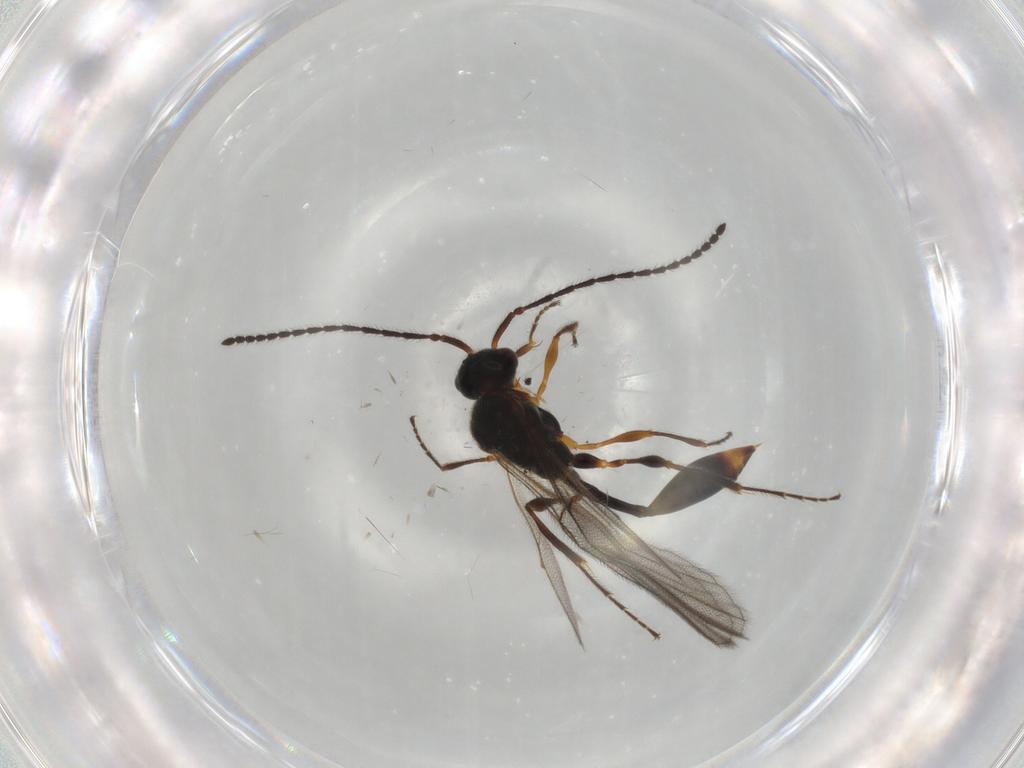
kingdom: Animalia
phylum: Arthropoda
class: Insecta
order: Hymenoptera
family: Diapriidae
